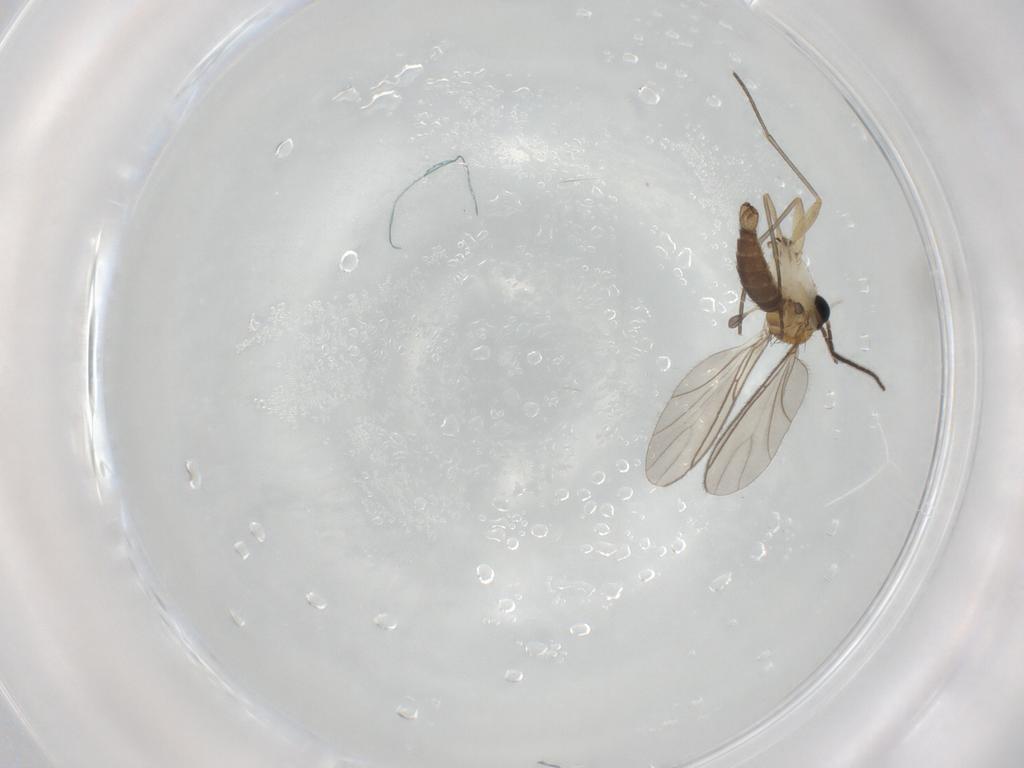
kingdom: Animalia
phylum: Arthropoda
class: Insecta
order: Diptera
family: Sciaridae
